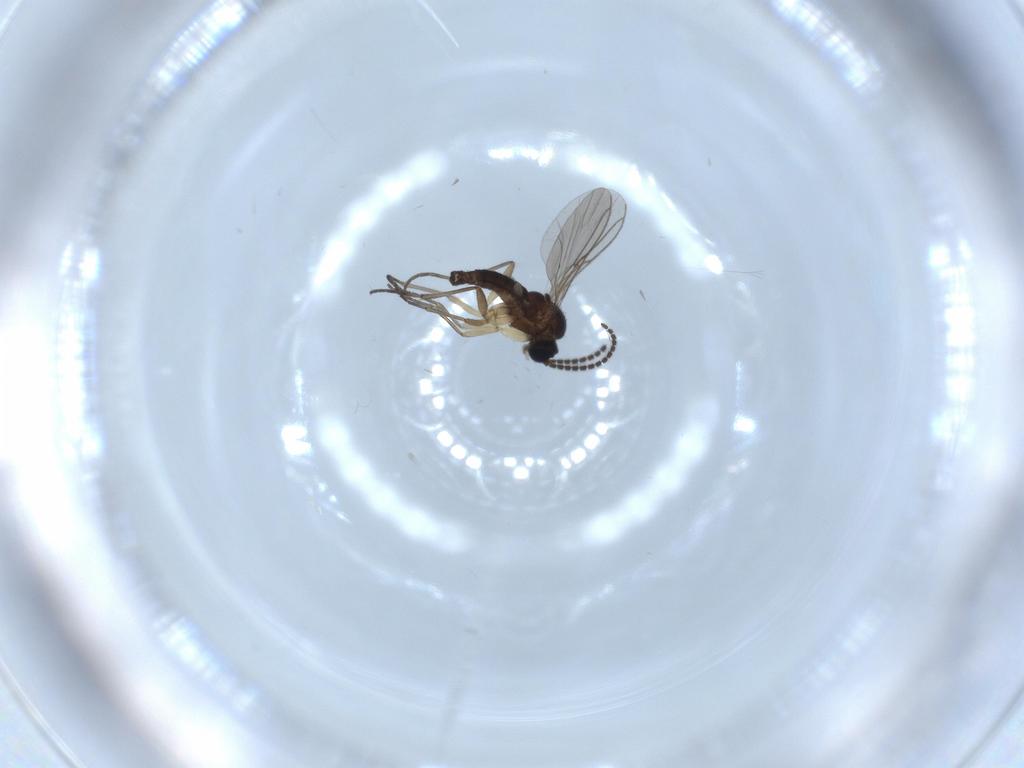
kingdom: Animalia
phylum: Arthropoda
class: Insecta
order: Diptera
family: Sciaridae
